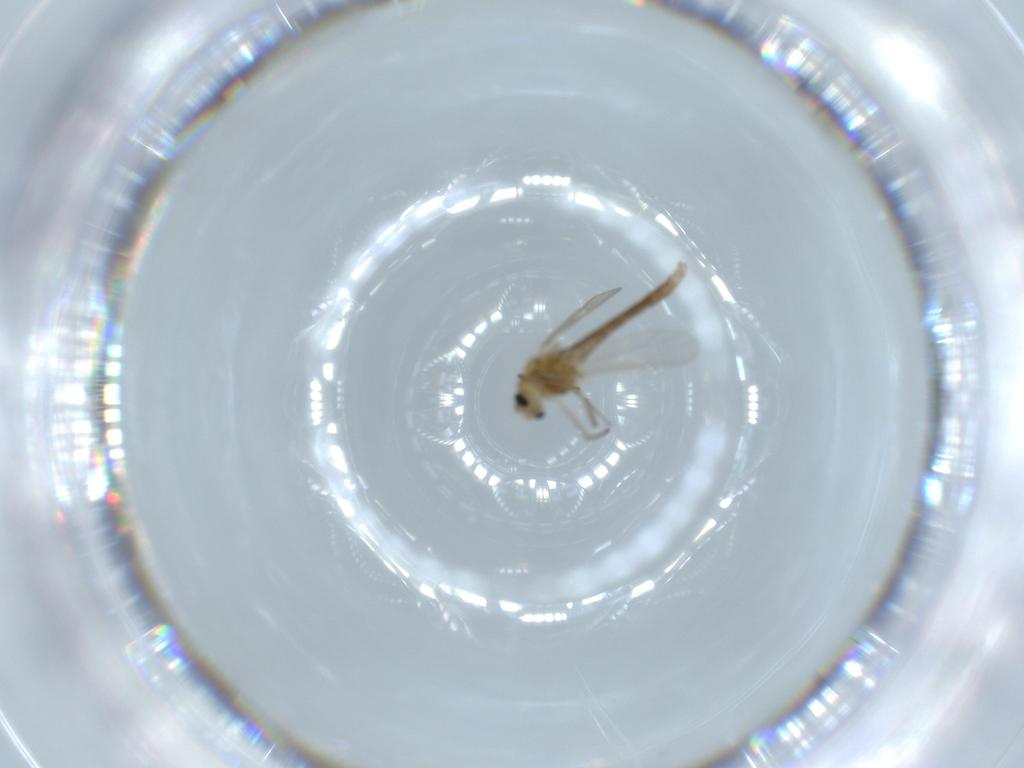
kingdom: Animalia
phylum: Arthropoda
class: Insecta
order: Diptera
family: Chironomidae
